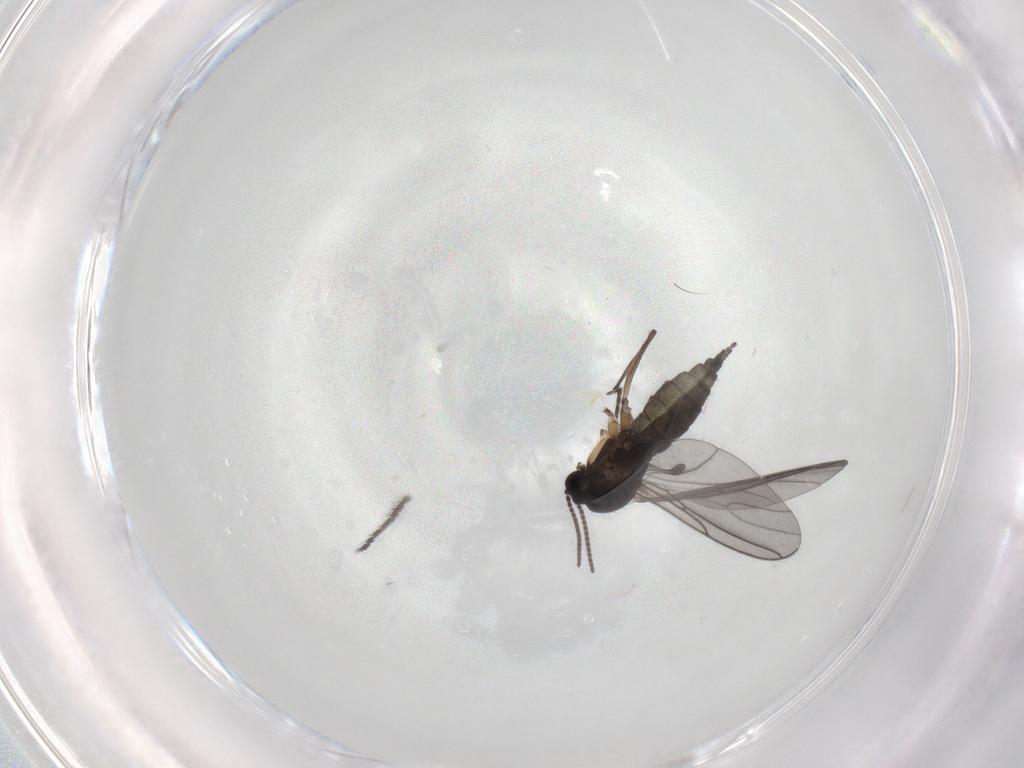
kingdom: Animalia
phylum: Arthropoda
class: Insecta
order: Diptera
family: Sciaridae
